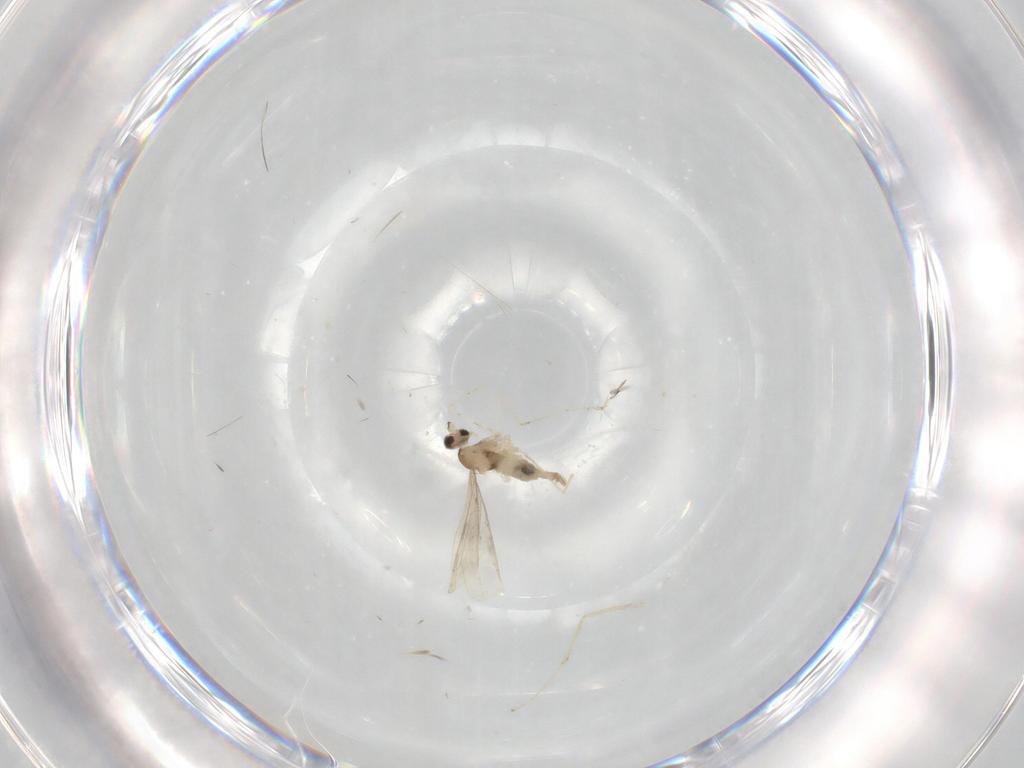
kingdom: Animalia
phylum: Arthropoda
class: Insecta
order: Diptera
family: Cecidomyiidae
